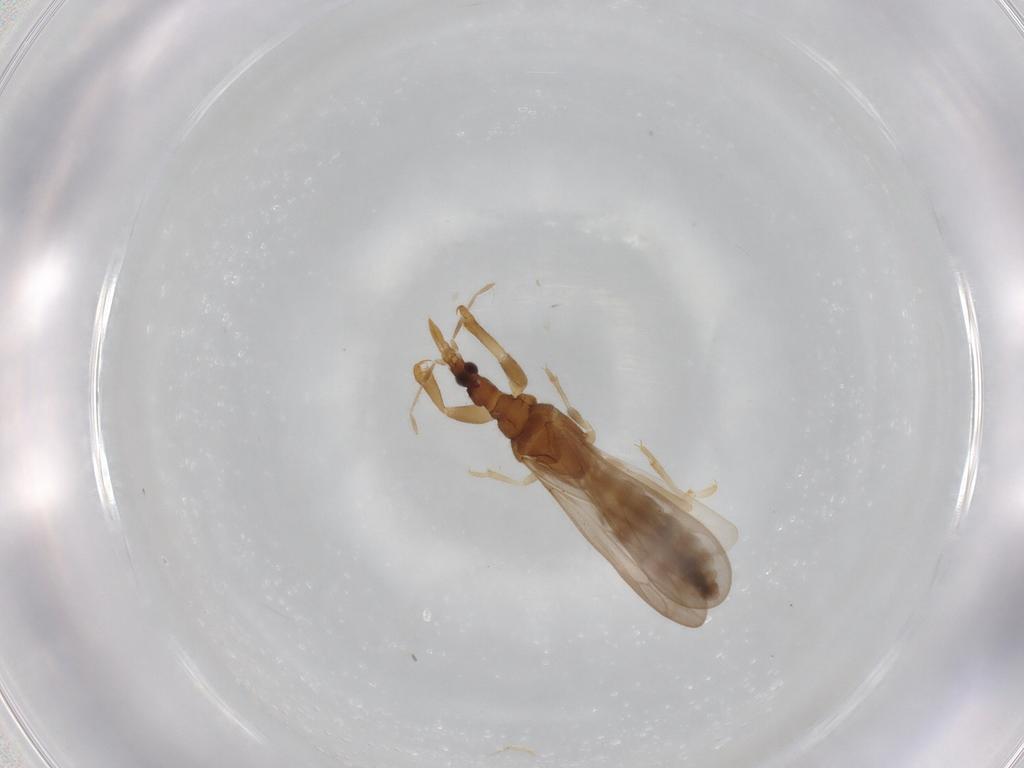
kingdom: Animalia
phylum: Arthropoda
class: Insecta
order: Hemiptera
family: Enicocephalidae
